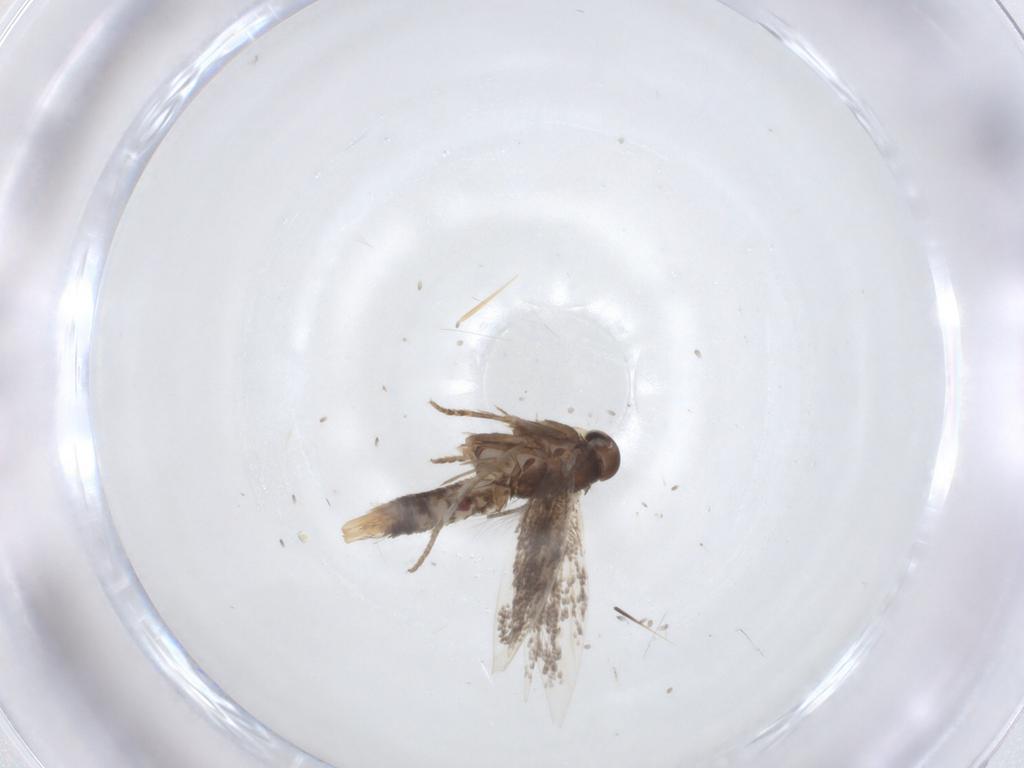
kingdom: Animalia
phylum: Arthropoda
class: Insecta
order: Lepidoptera
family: Elachistidae
